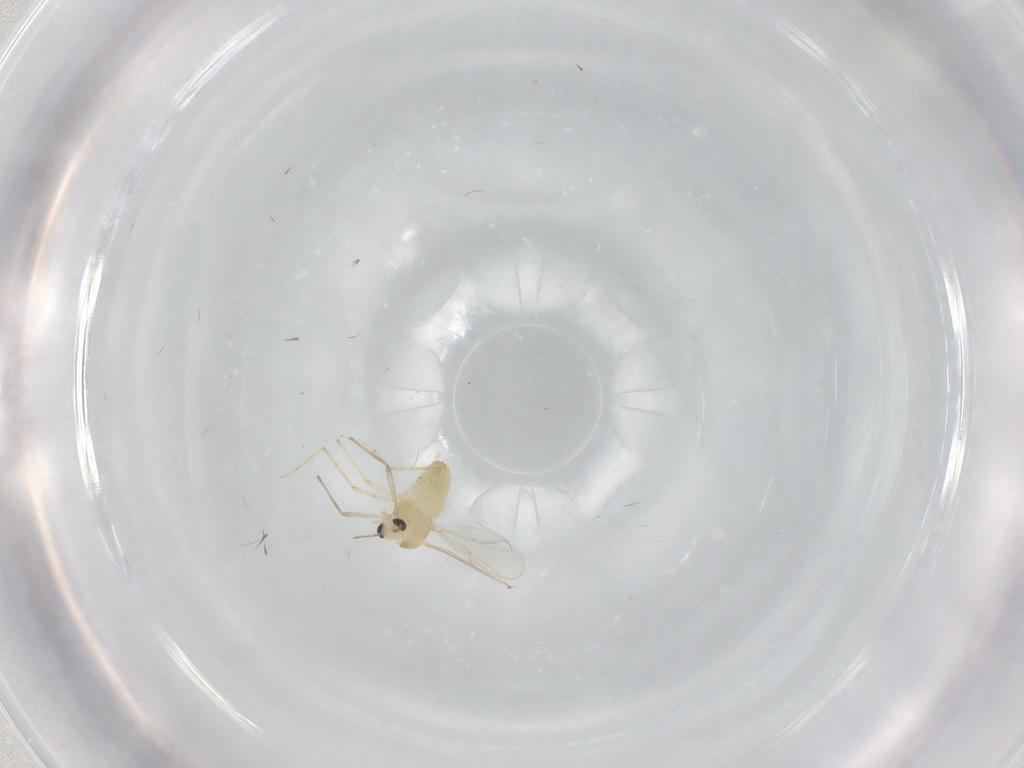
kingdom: Animalia
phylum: Arthropoda
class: Insecta
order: Diptera
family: Chironomidae
